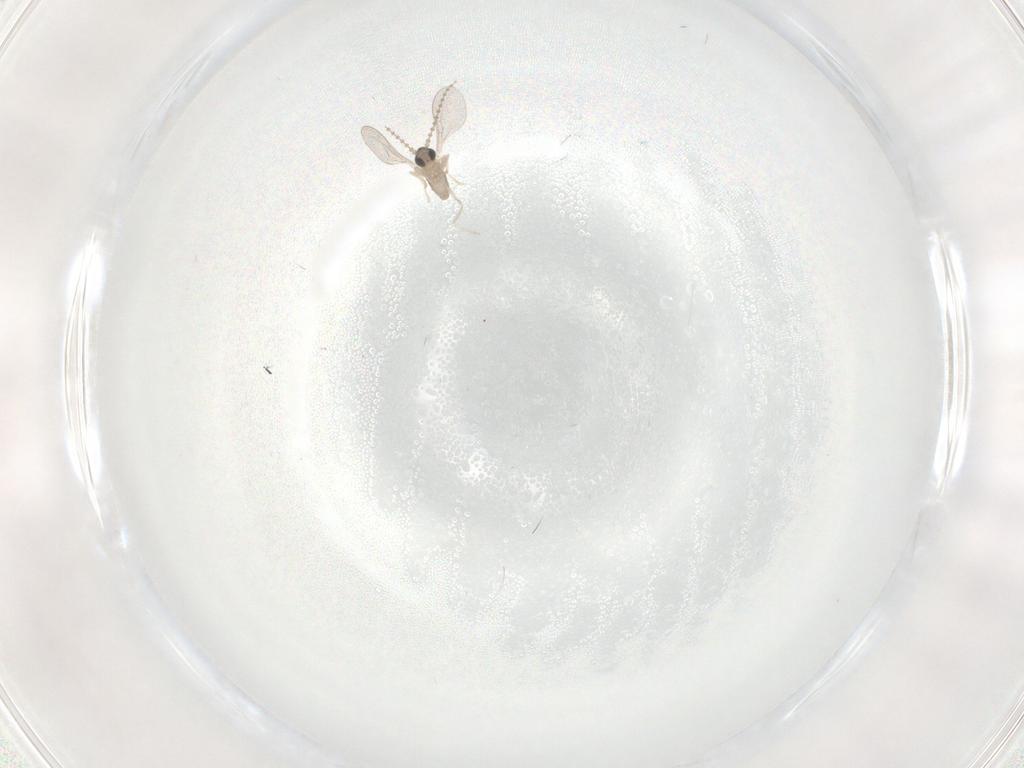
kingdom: Animalia
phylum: Arthropoda
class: Insecta
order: Diptera
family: Cecidomyiidae
